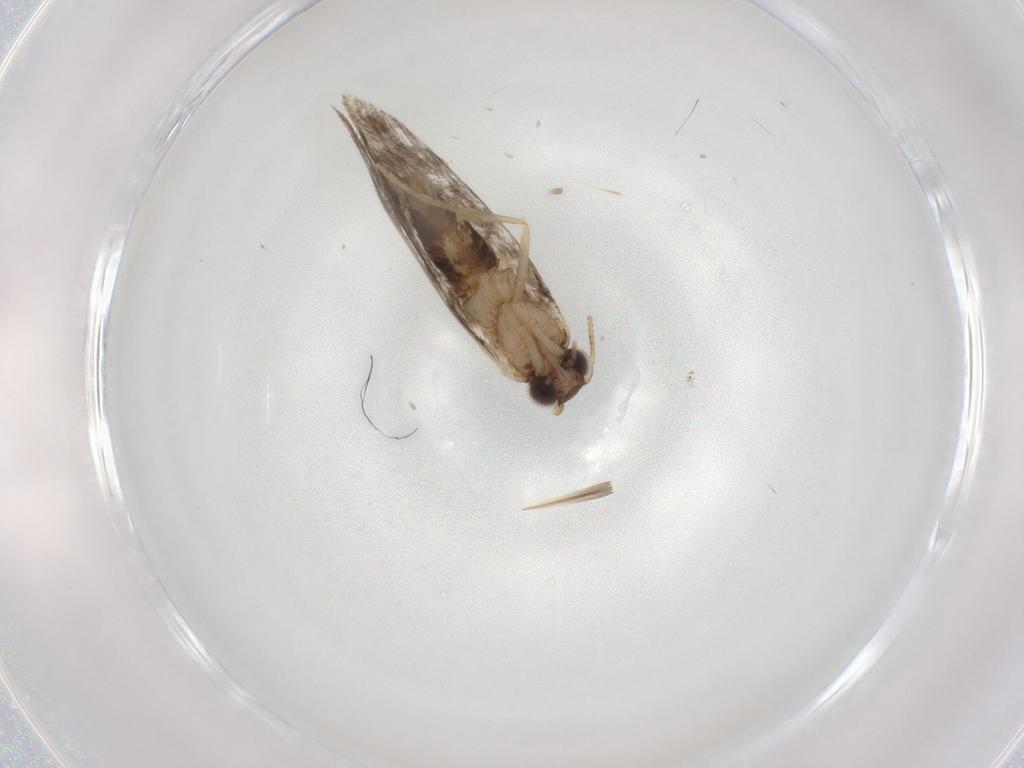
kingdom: Animalia
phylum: Arthropoda
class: Insecta
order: Lepidoptera
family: Tineidae
